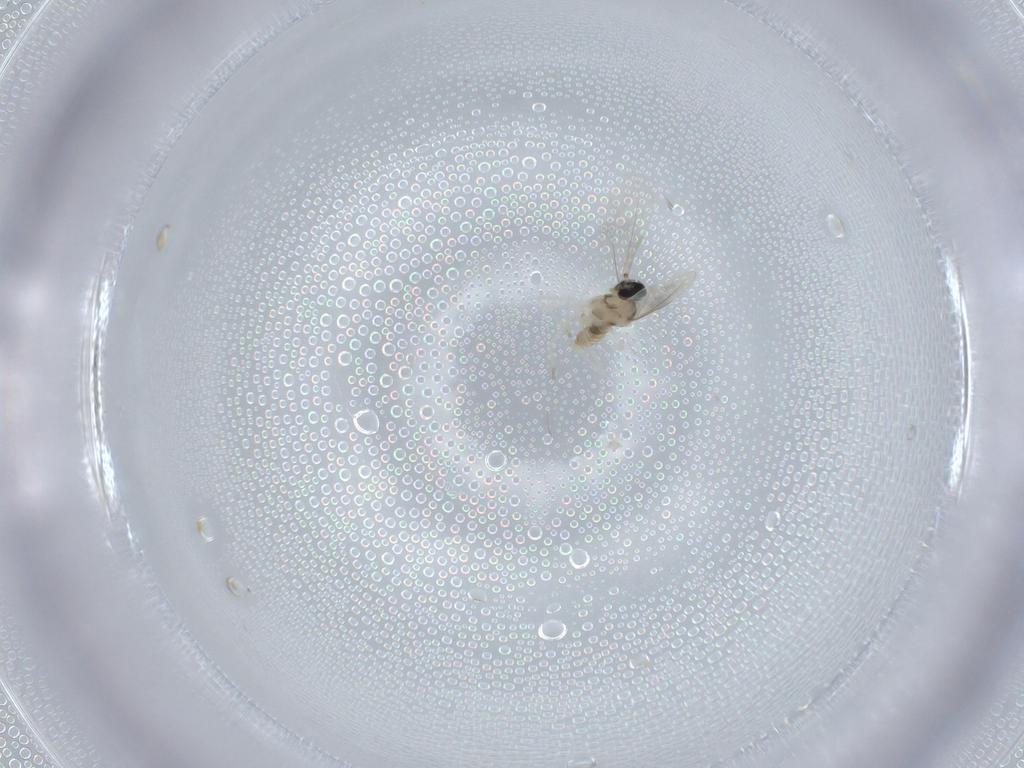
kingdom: Animalia
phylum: Arthropoda
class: Insecta
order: Diptera
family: Cecidomyiidae
